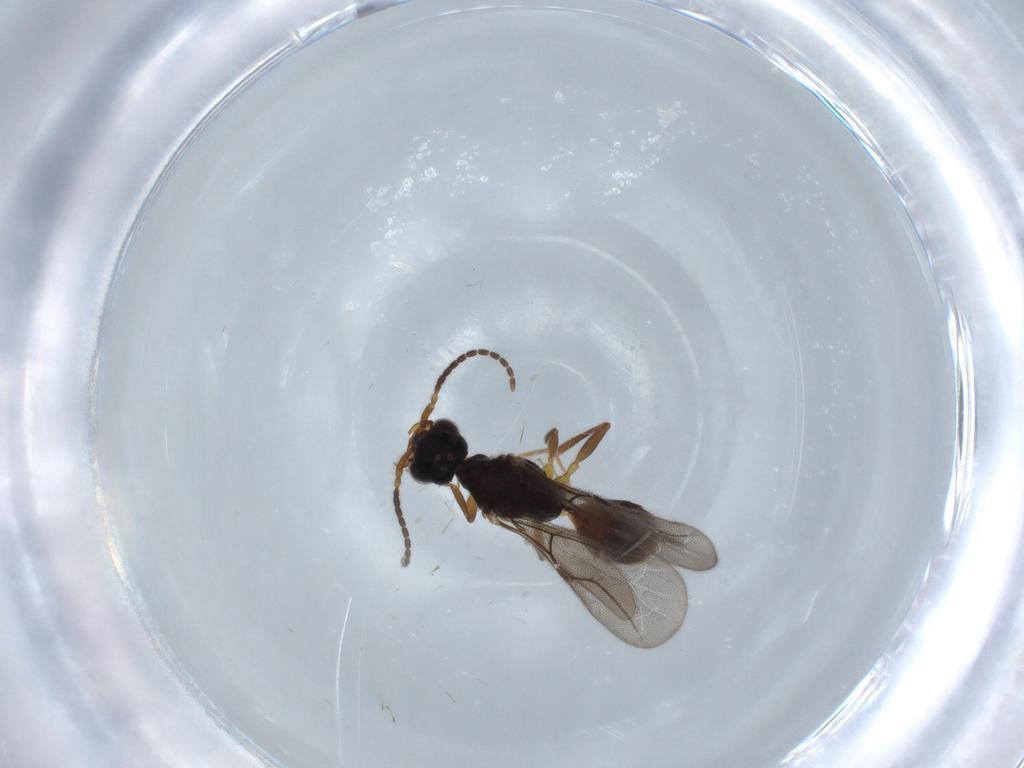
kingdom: Animalia
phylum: Arthropoda
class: Insecta
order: Hymenoptera
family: Bethylidae
